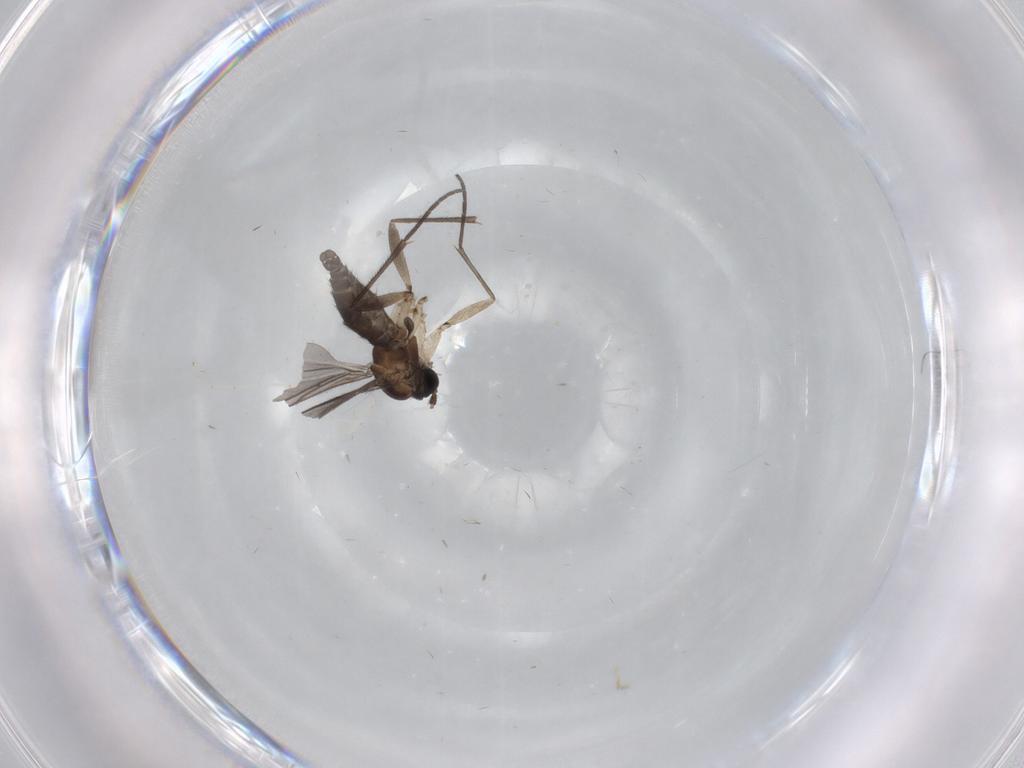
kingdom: Animalia
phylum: Arthropoda
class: Insecta
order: Diptera
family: Sciaridae
